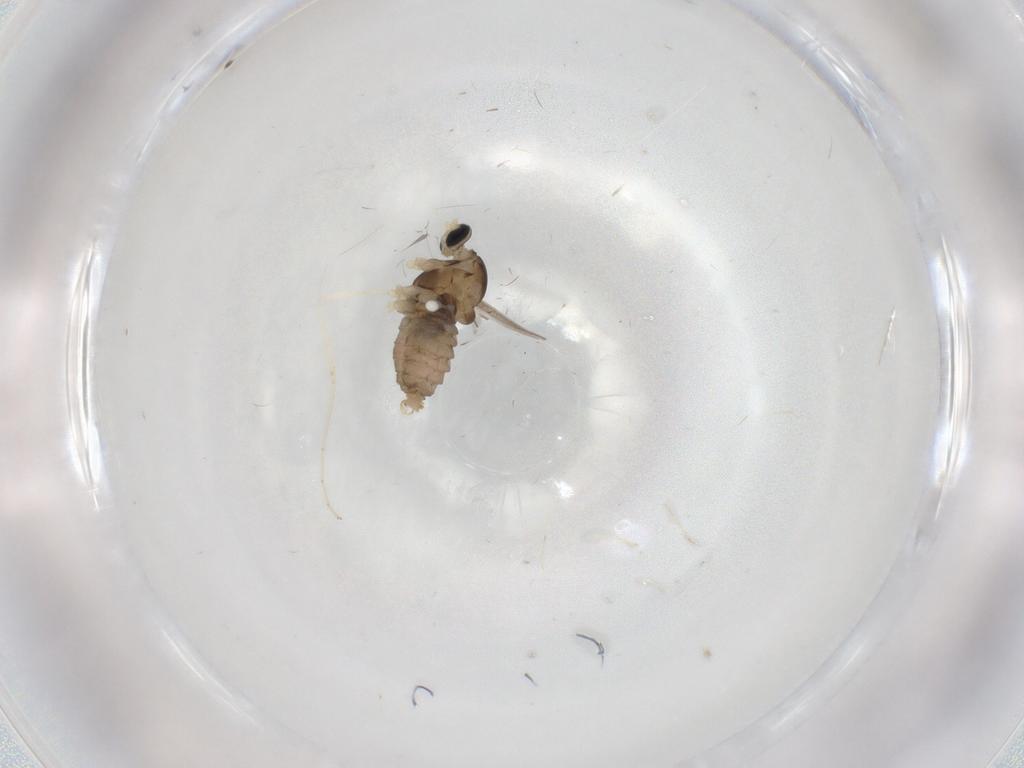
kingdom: Animalia
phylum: Arthropoda
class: Insecta
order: Diptera
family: Cecidomyiidae
